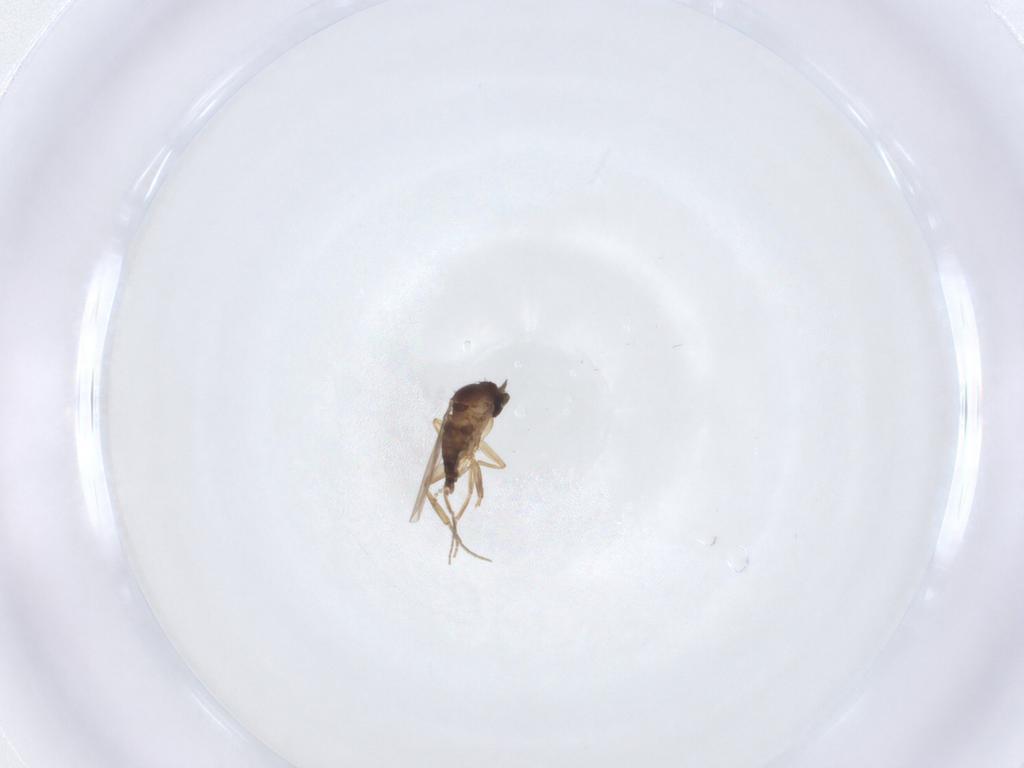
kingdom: Animalia
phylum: Arthropoda
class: Insecta
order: Diptera
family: Phoridae
